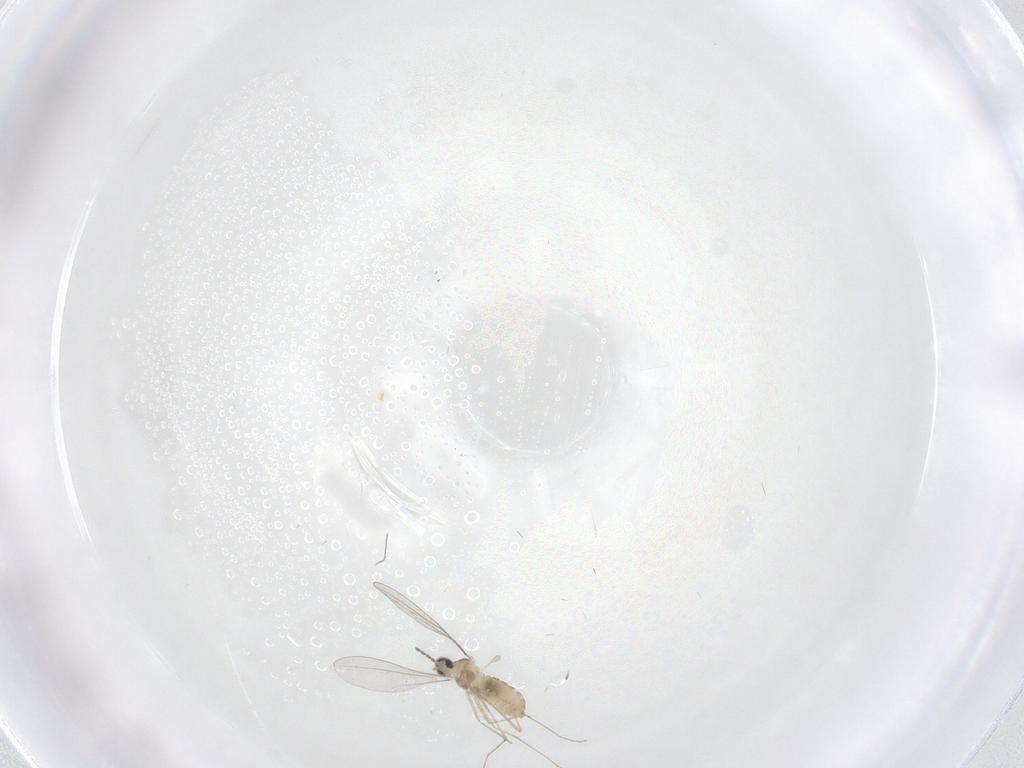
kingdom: Animalia
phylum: Arthropoda
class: Insecta
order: Diptera
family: Cecidomyiidae
